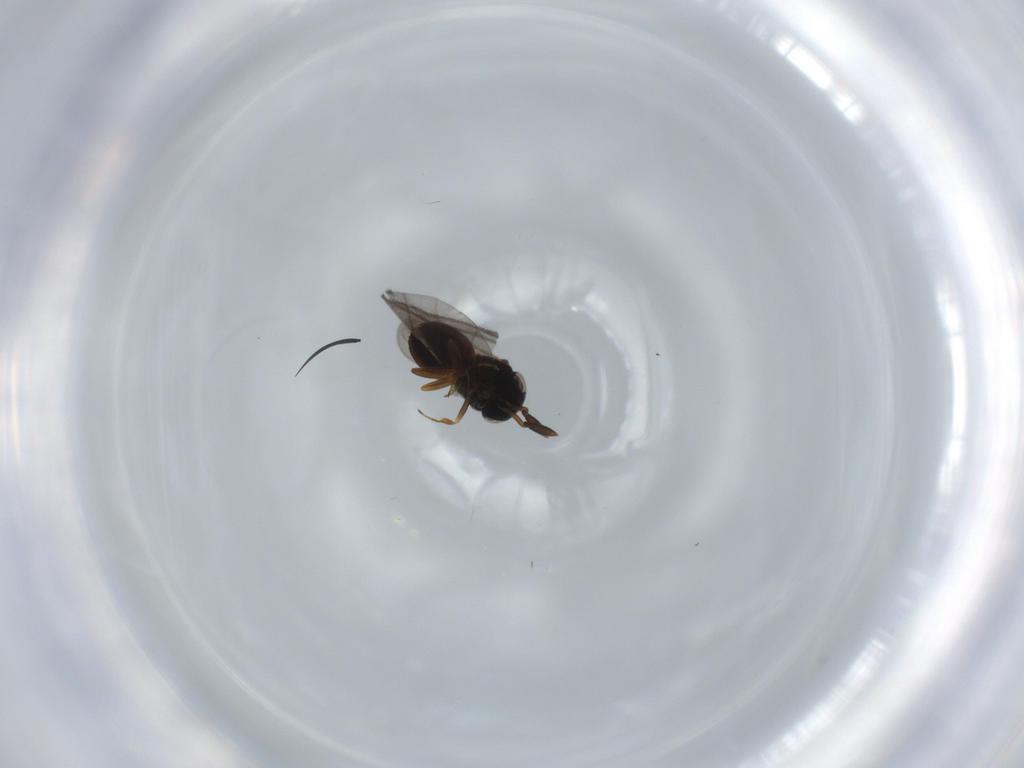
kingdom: Animalia
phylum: Arthropoda
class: Insecta
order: Coleoptera
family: Curculionidae
